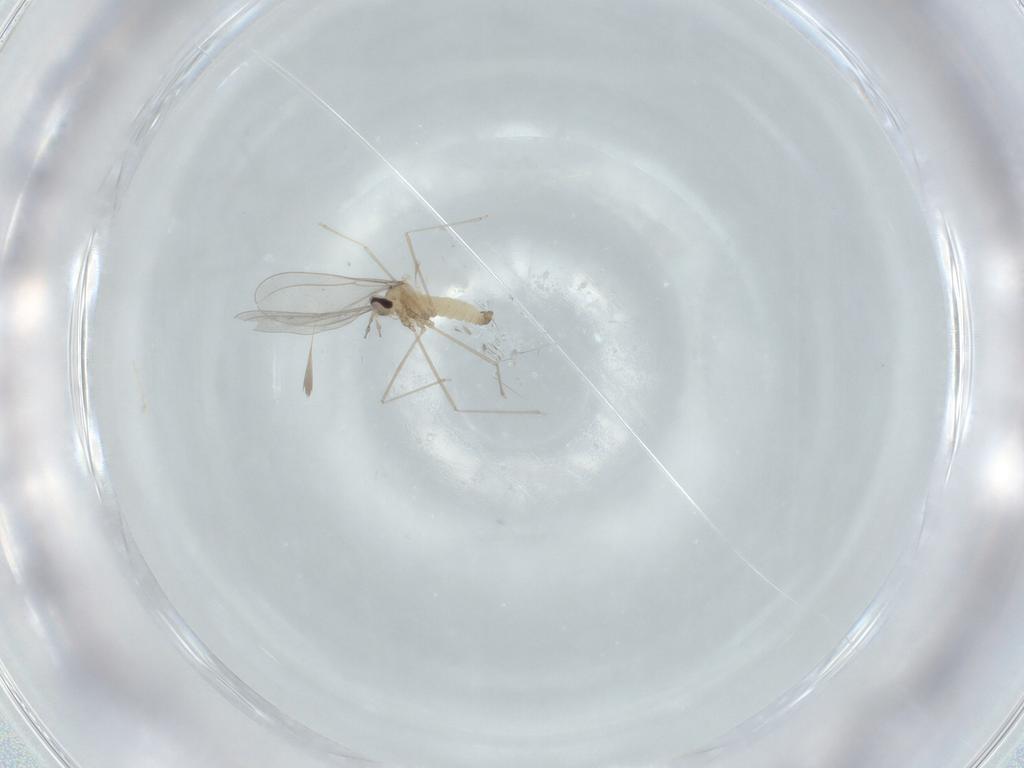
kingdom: Animalia
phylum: Arthropoda
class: Insecta
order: Diptera
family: Cecidomyiidae
